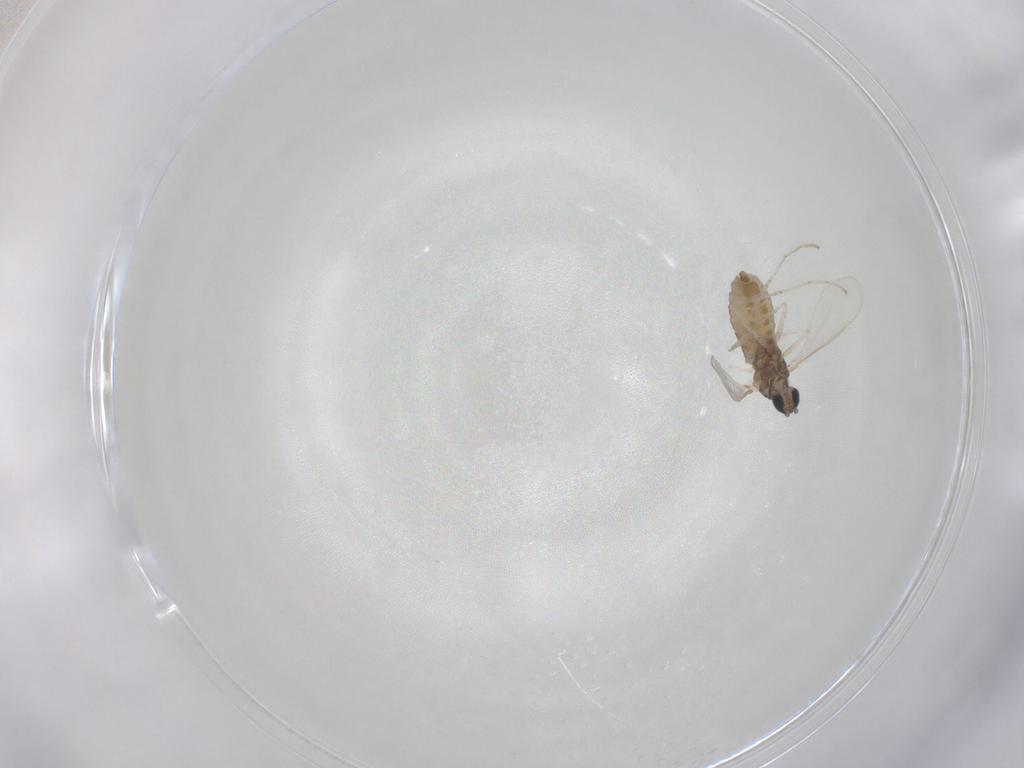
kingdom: Animalia
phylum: Arthropoda
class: Insecta
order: Diptera
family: Cecidomyiidae
